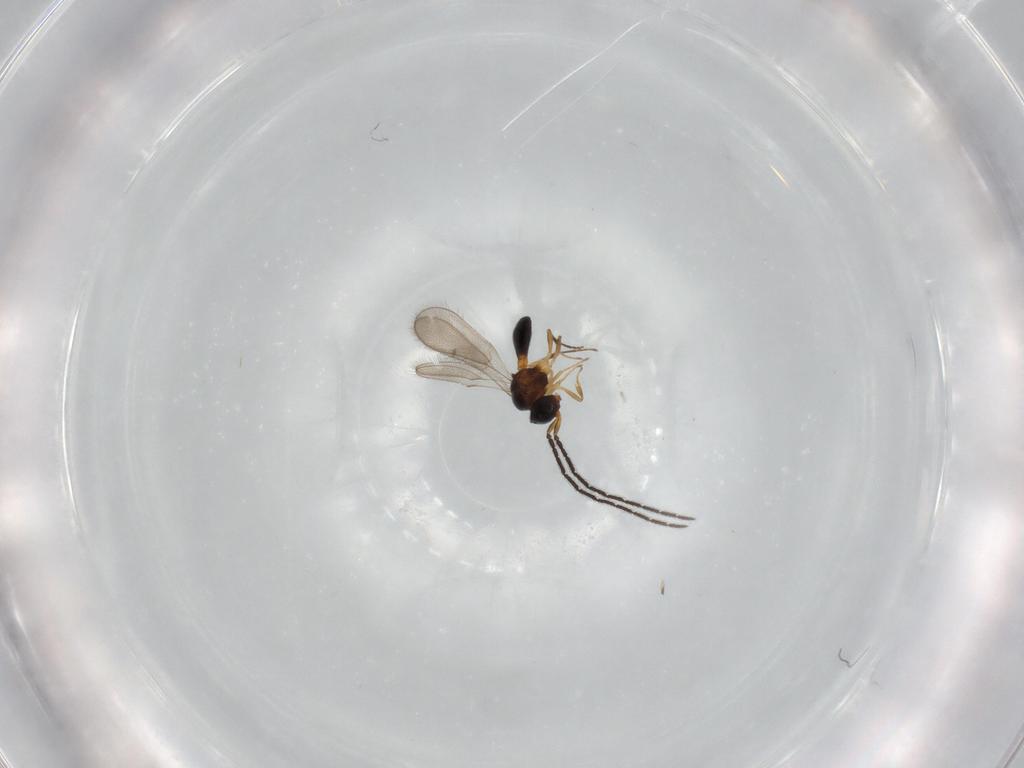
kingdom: Animalia
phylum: Arthropoda
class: Insecta
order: Hymenoptera
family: Scelionidae
